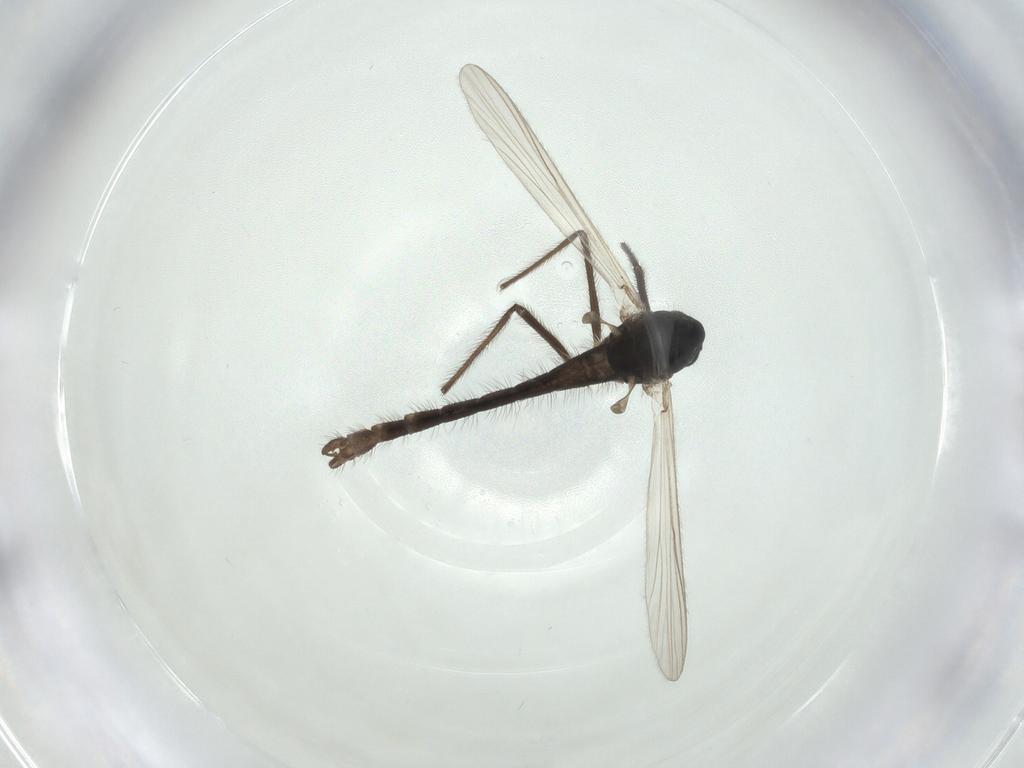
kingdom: Animalia
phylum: Arthropoda
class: Insecta
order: Diptera
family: Chironomidae
